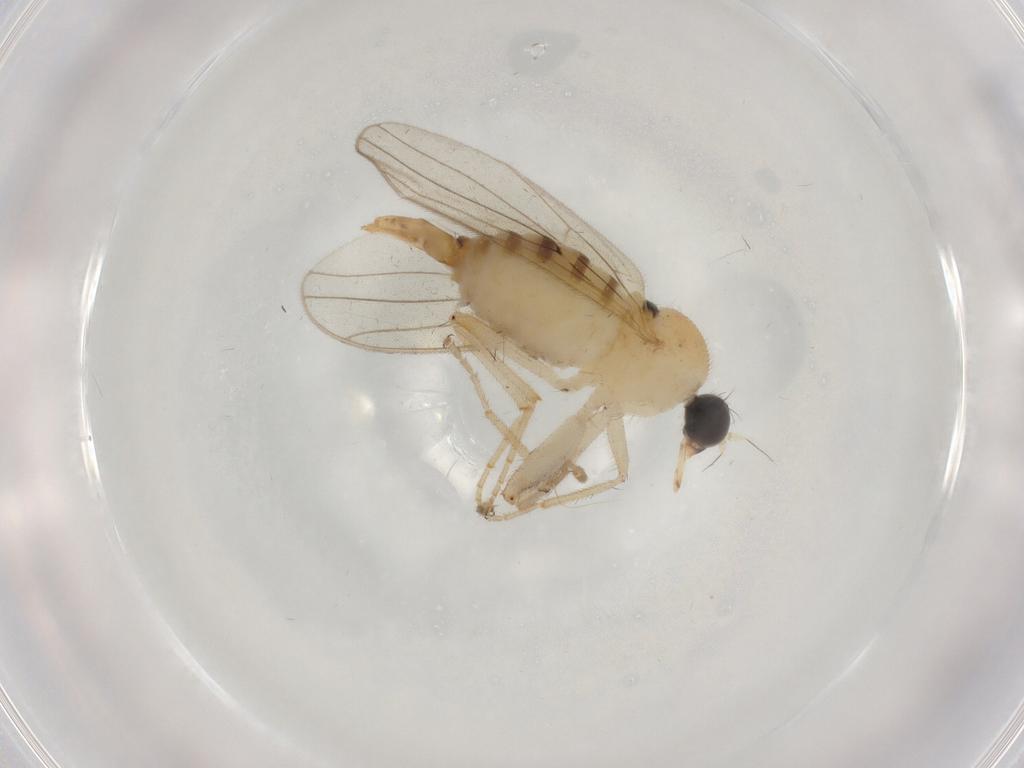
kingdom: Animalia
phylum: Arthropoda
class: Insecta
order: Diptera
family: Hybotidae
